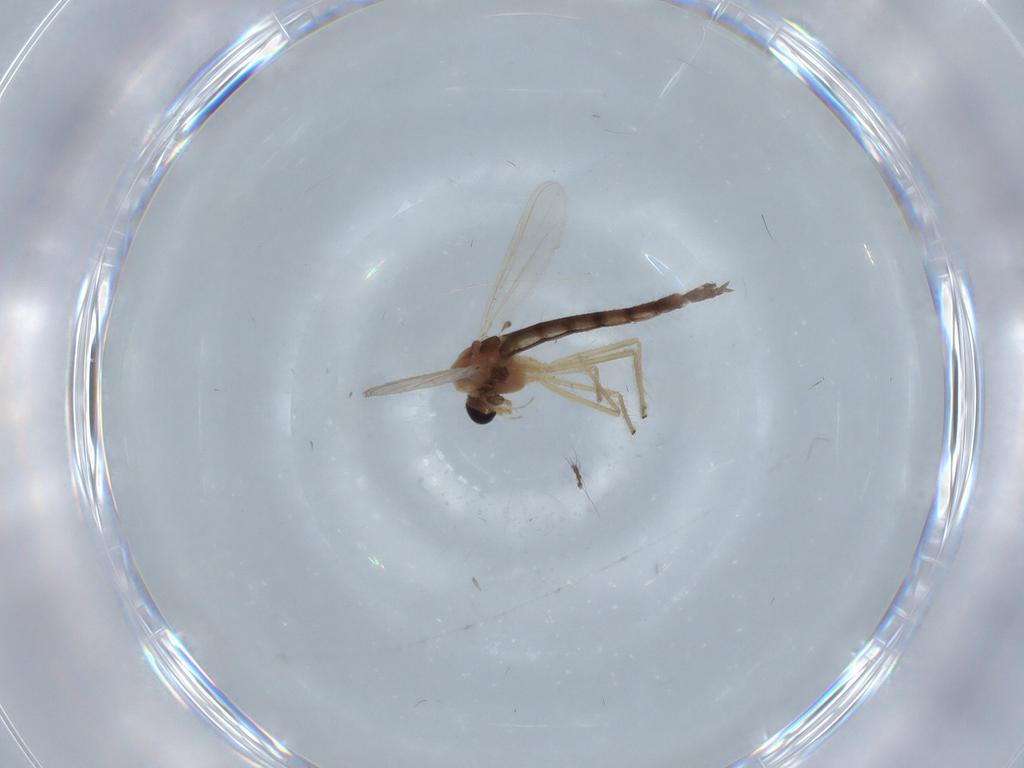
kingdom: Animalia
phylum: Arthropoda
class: Insecta
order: Diptera
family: Chironomidae
